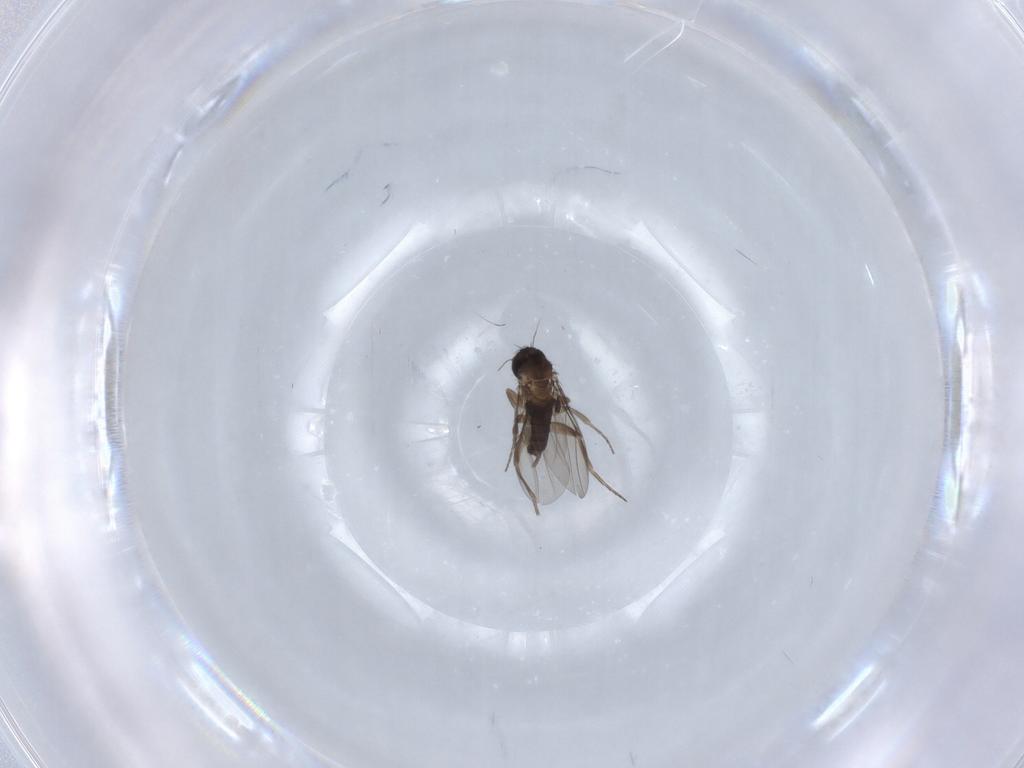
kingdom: Animalia
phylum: Arthropoda
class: Insecta
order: Diptera
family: Phoridae
